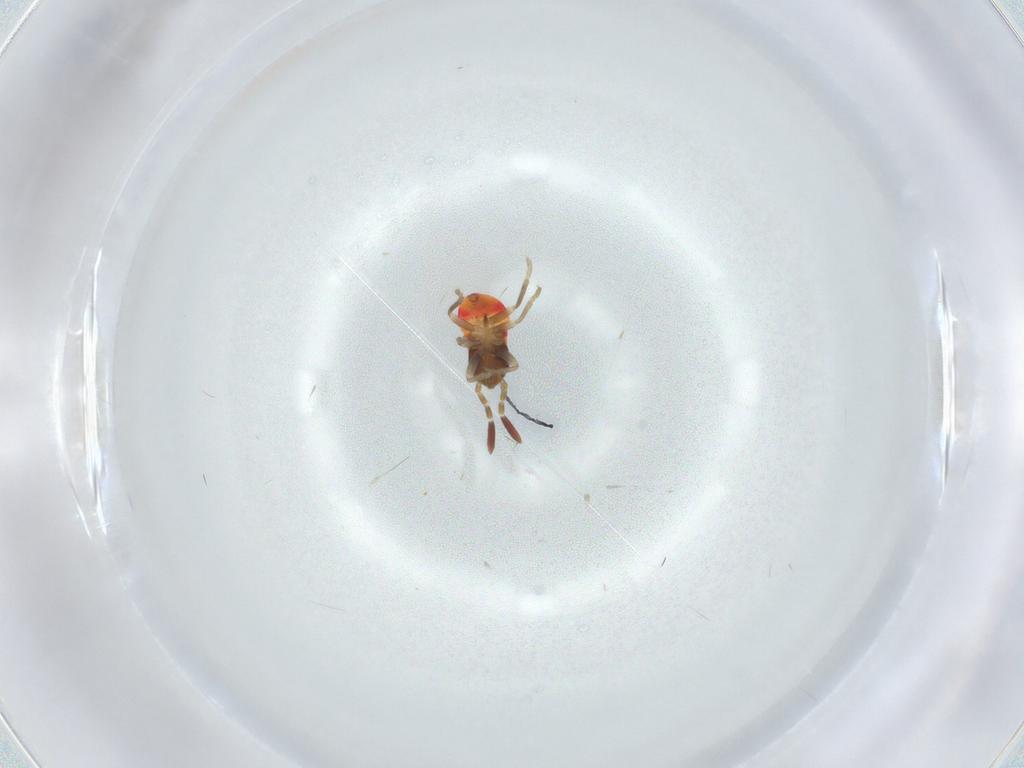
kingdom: Animalia
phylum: Arthropoda
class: Insecta
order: Hemiptera
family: Rhyparochromidae
